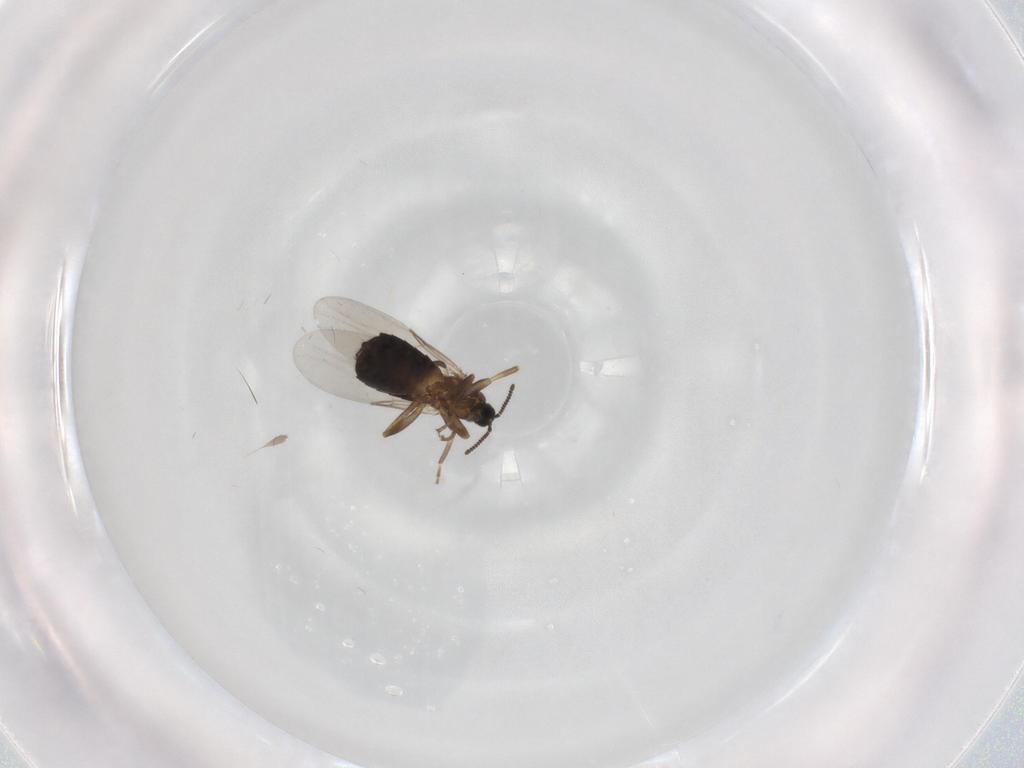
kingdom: Animalia
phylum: Arthropoda
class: Insecta
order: Diptera
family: Scatopsidae
